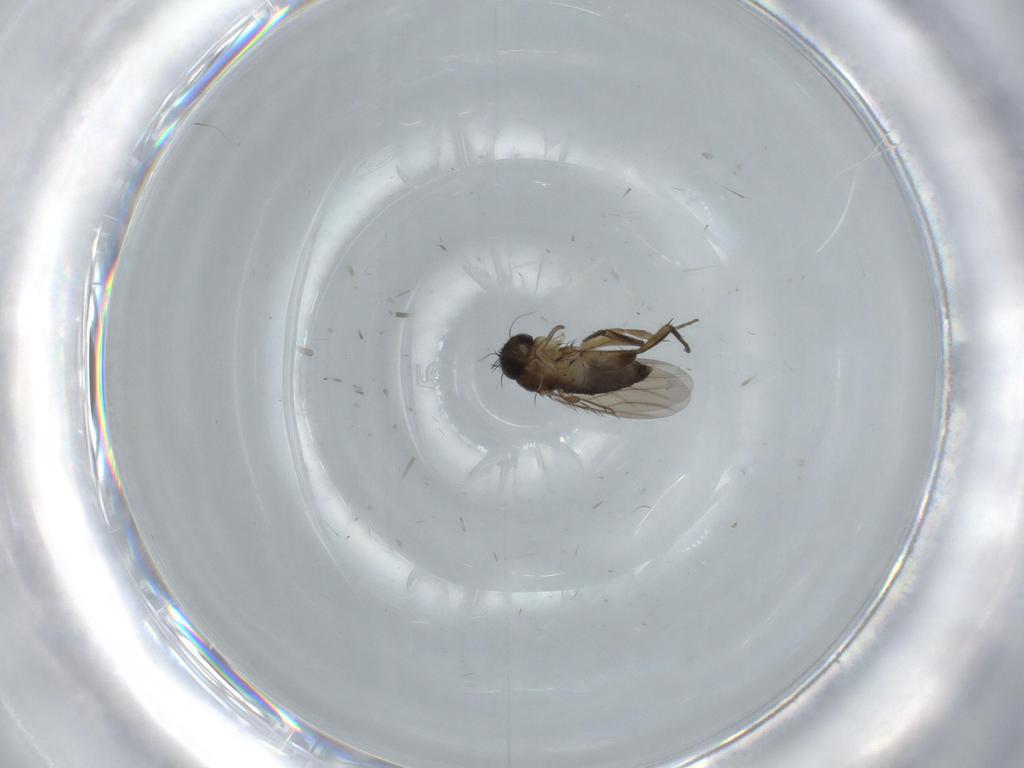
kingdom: Animalia
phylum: Arthropoda
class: Insecta
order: Diptera
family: Phoridae
